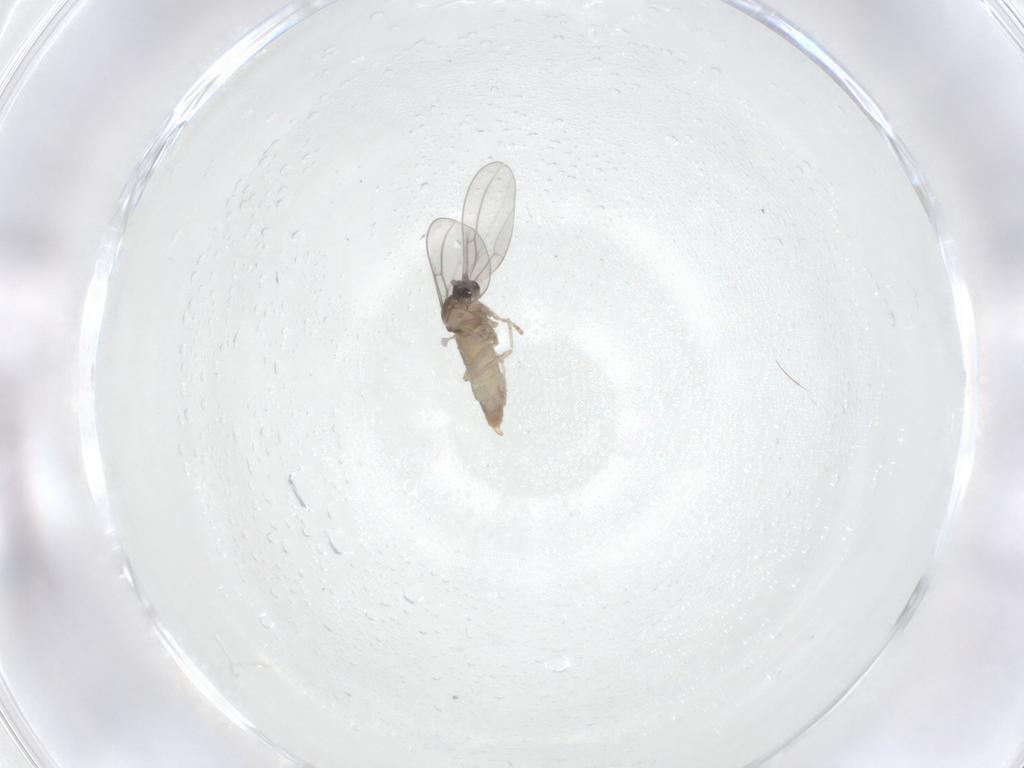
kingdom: Animalia
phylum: Arthropoda
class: Insecta
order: Diptera
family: Cecidomyiidae
